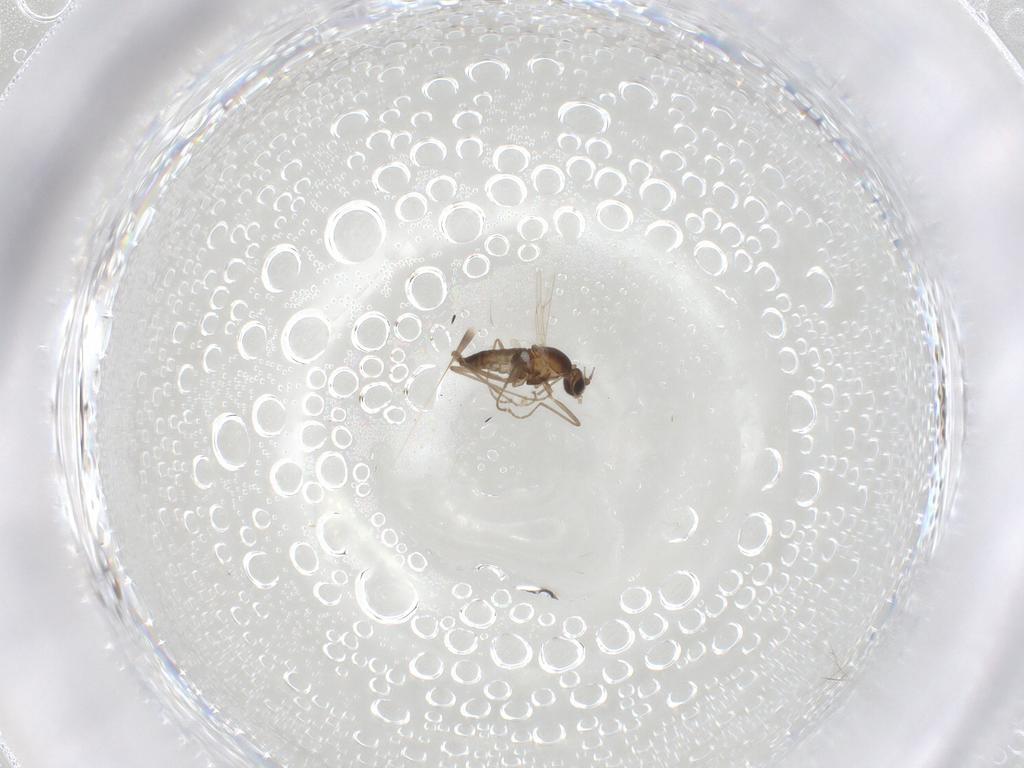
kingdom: Animalia
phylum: Arthropoda
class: Insecta
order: Diptera
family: Cecidomyiidae
